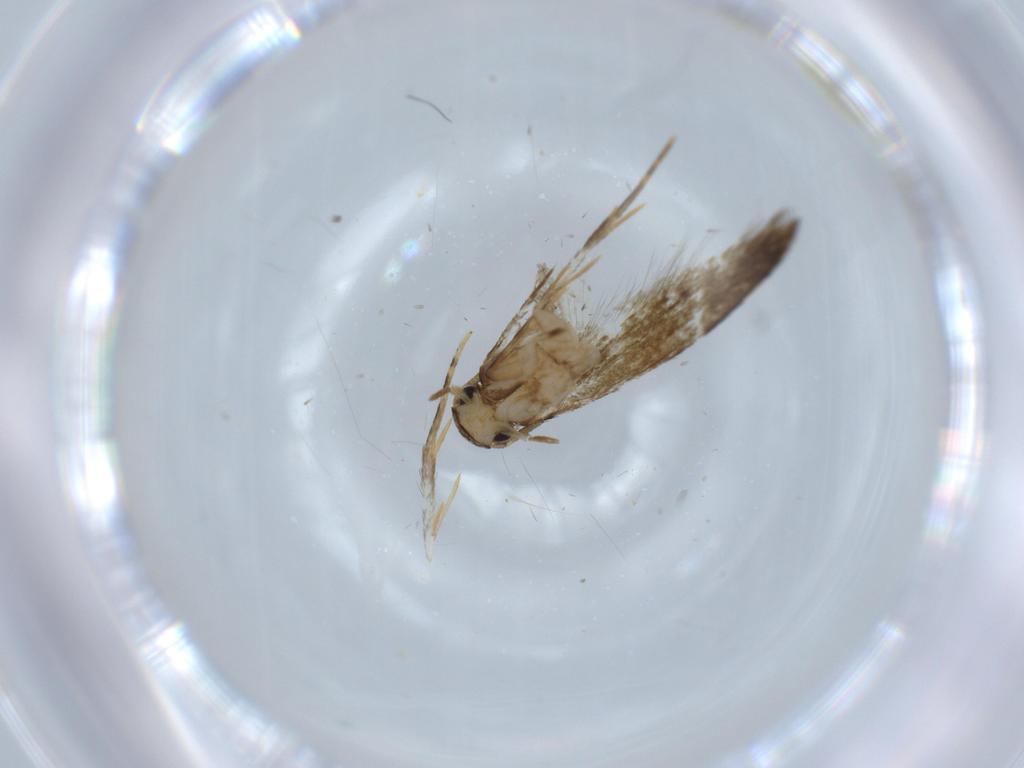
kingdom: Animalia
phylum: Arthropoda
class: Insecta
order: Lepidoptera
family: Tineidae
